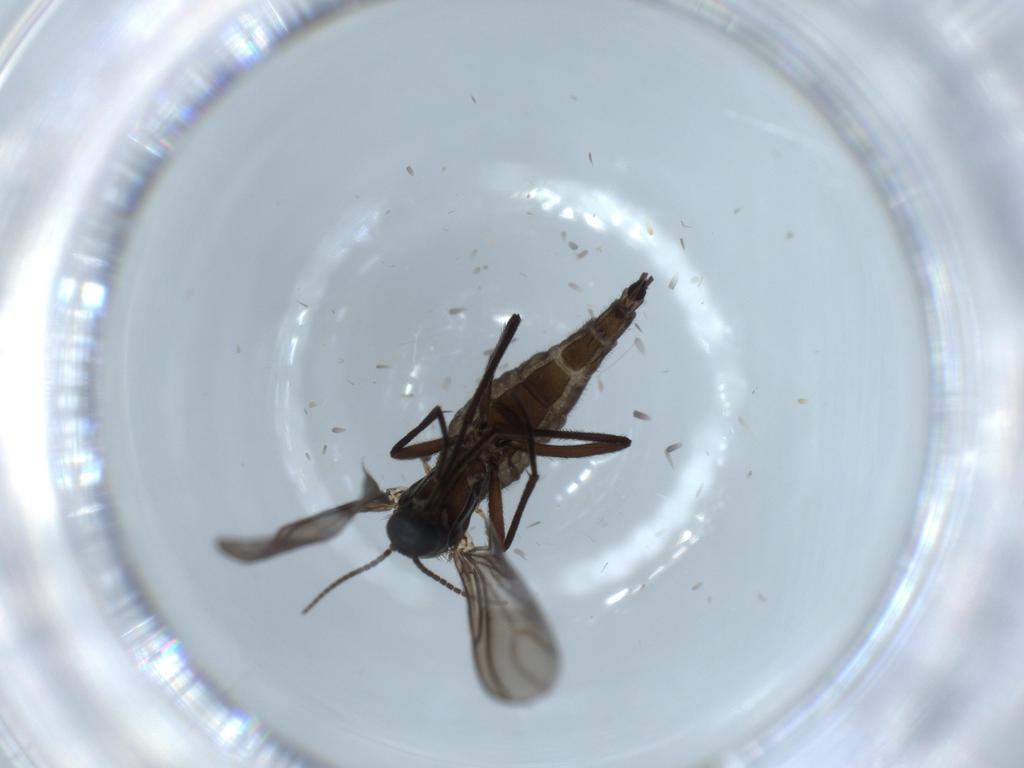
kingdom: Animalia
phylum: Arthropoda
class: Insecta
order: Diptera
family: Sciaridae
